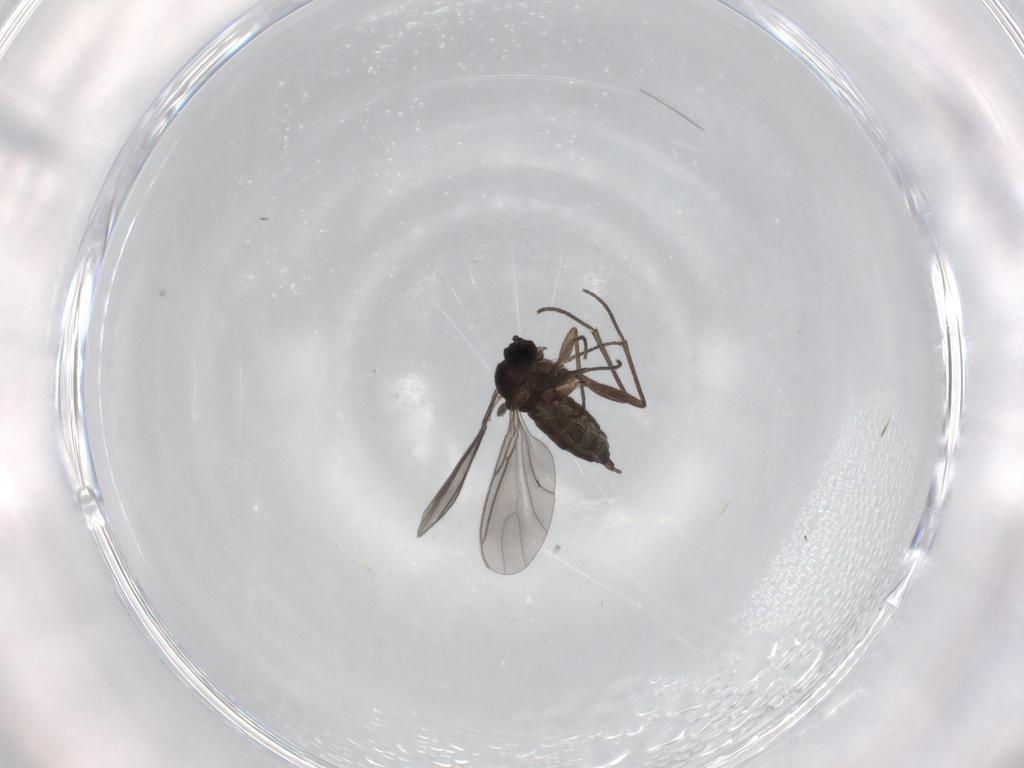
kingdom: Animalia
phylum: Arthropoda
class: Insecta
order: Diptera
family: Sciaridae
